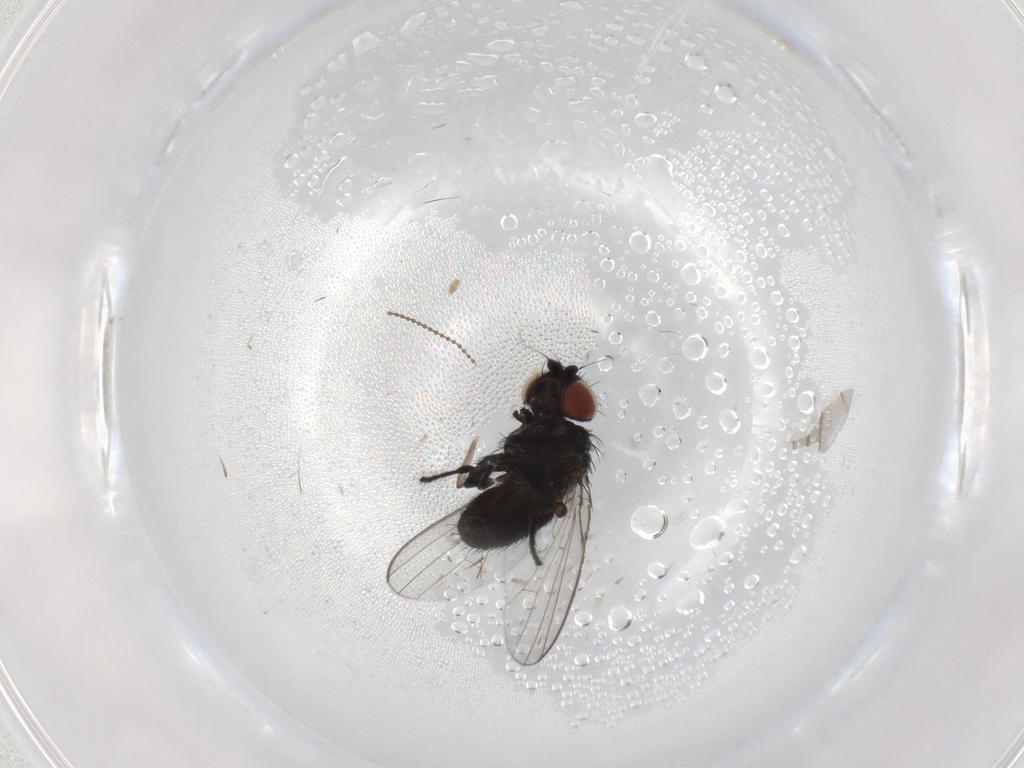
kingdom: Animalia
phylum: Arthropoda
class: Insecta
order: Diptera
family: Milichiidae
